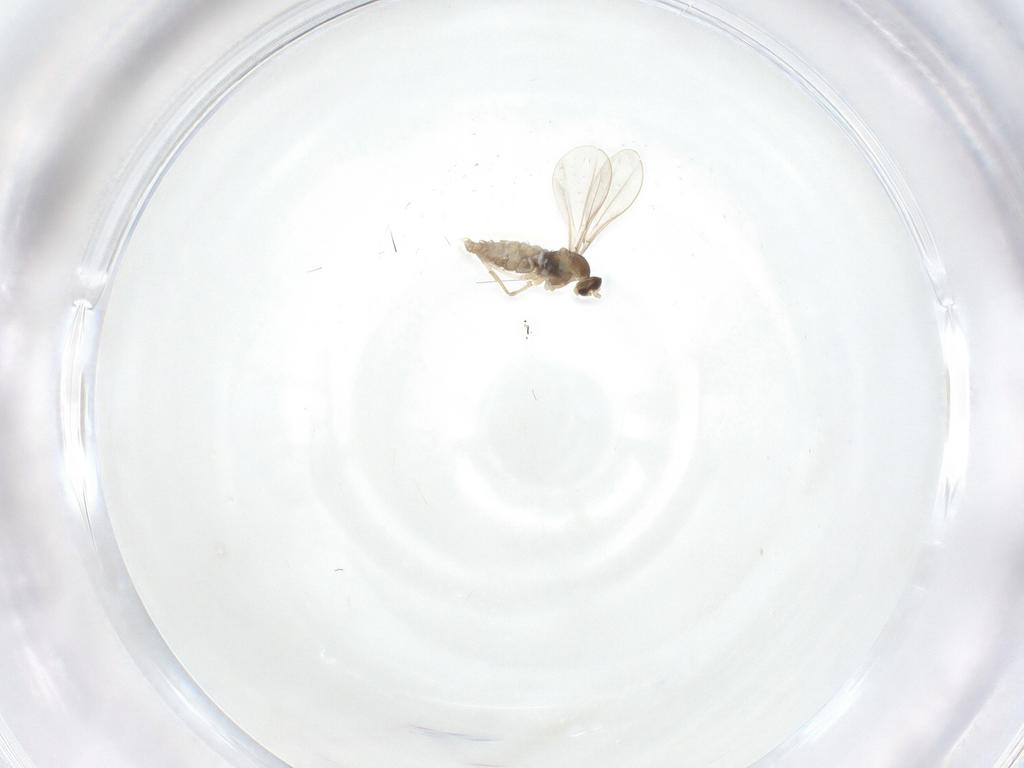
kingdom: Animalia
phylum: Arthropoda
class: Insecta
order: Diptera
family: Cecidomyiidae
